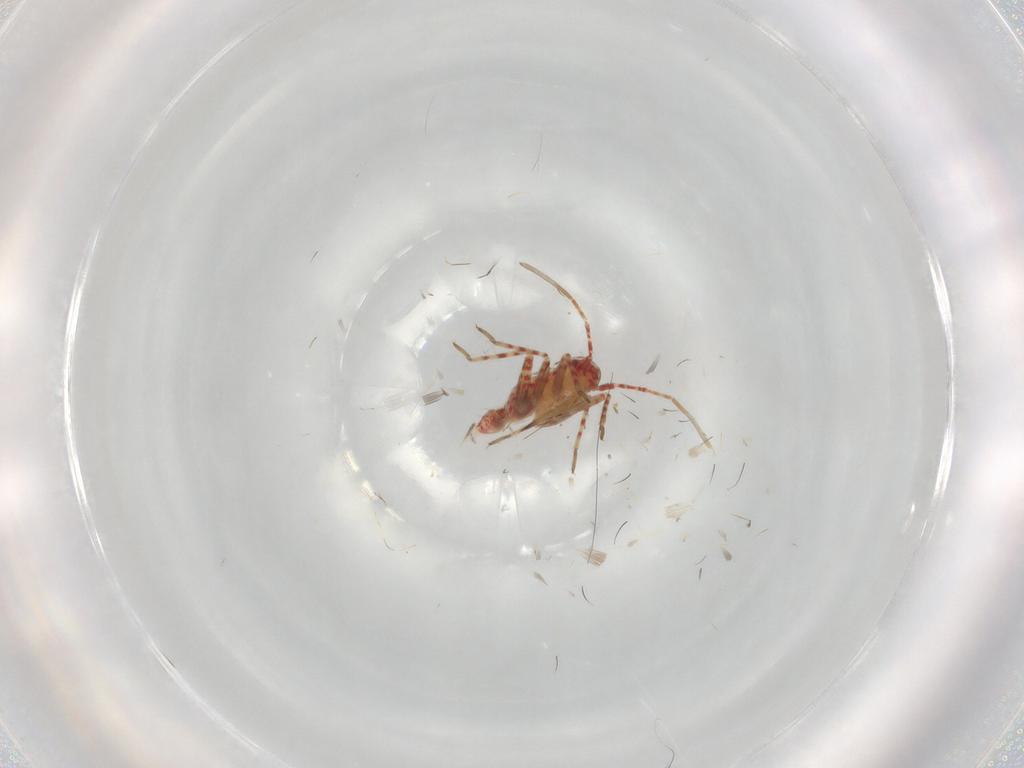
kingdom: Animalia
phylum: Arthropoda
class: Insecta
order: Hemiptera
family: Miridae
